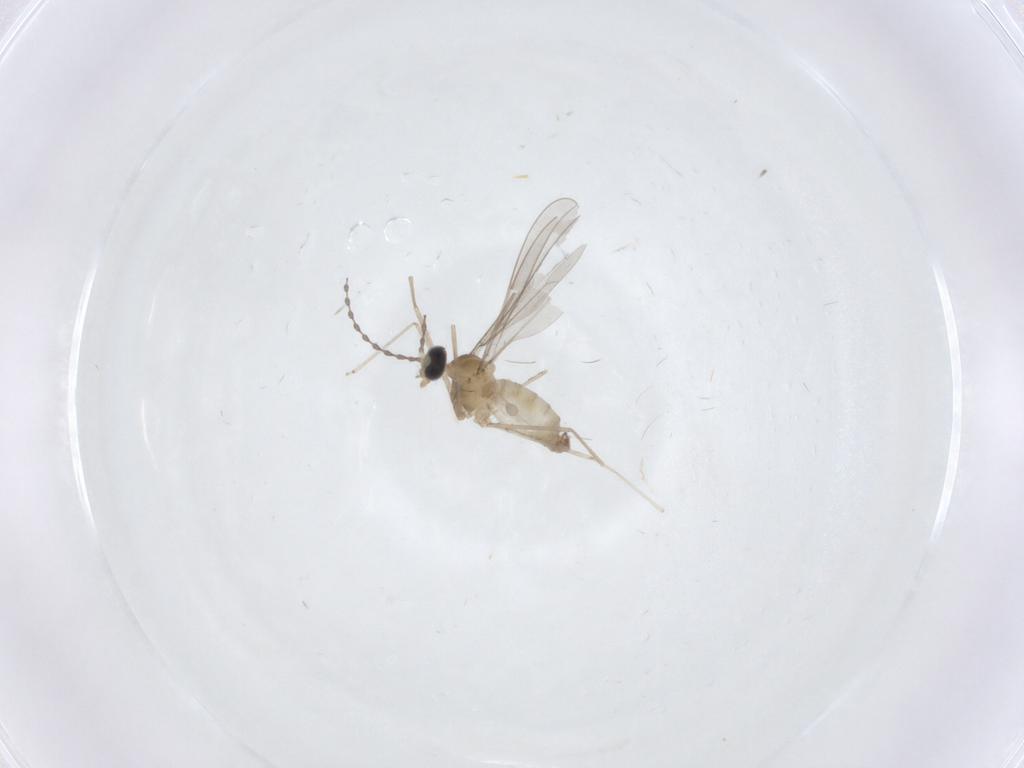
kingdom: Animalia
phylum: Arthropoda
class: Insecta
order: Diptera
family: Cecidomyiidae
